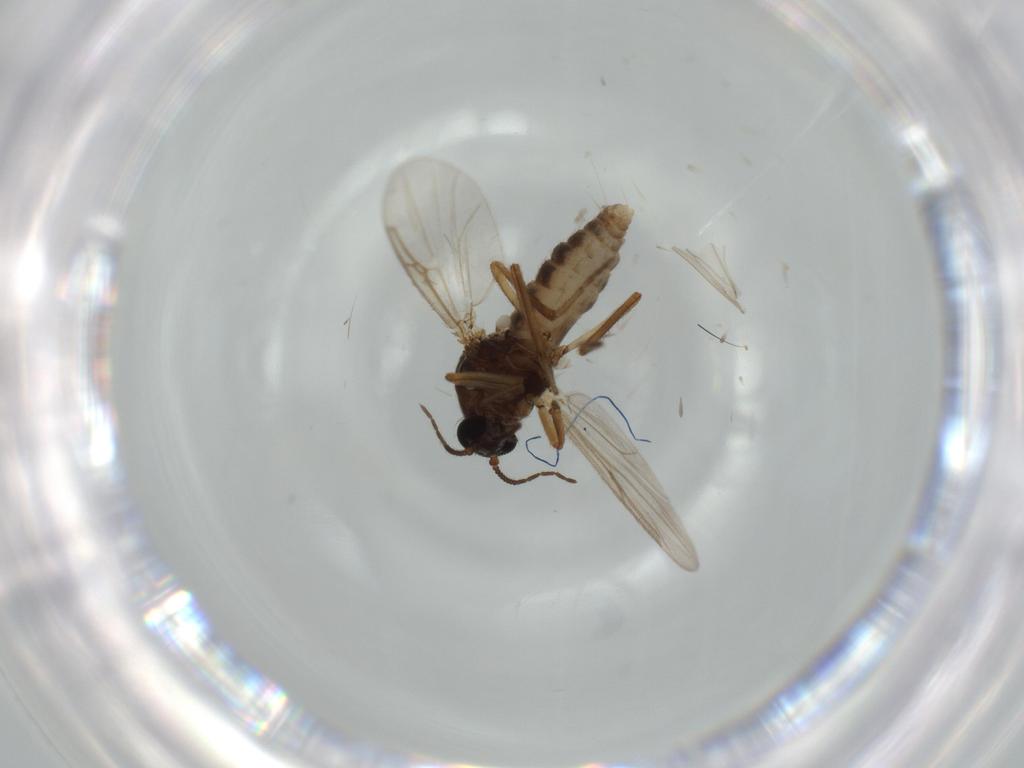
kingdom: Animalia
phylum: Arthropoda
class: Insecta
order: Diptera
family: Ceratopogonidae
